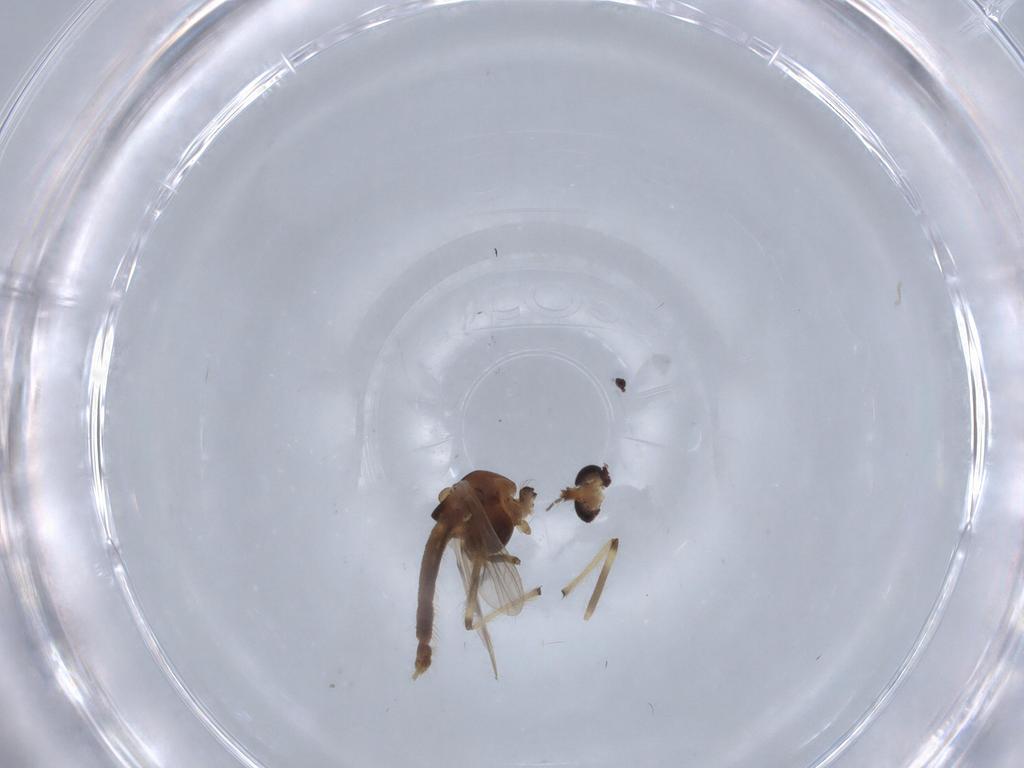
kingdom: Animalia
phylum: Arthropoda
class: Insecta
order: Diptera
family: Chironomidae
